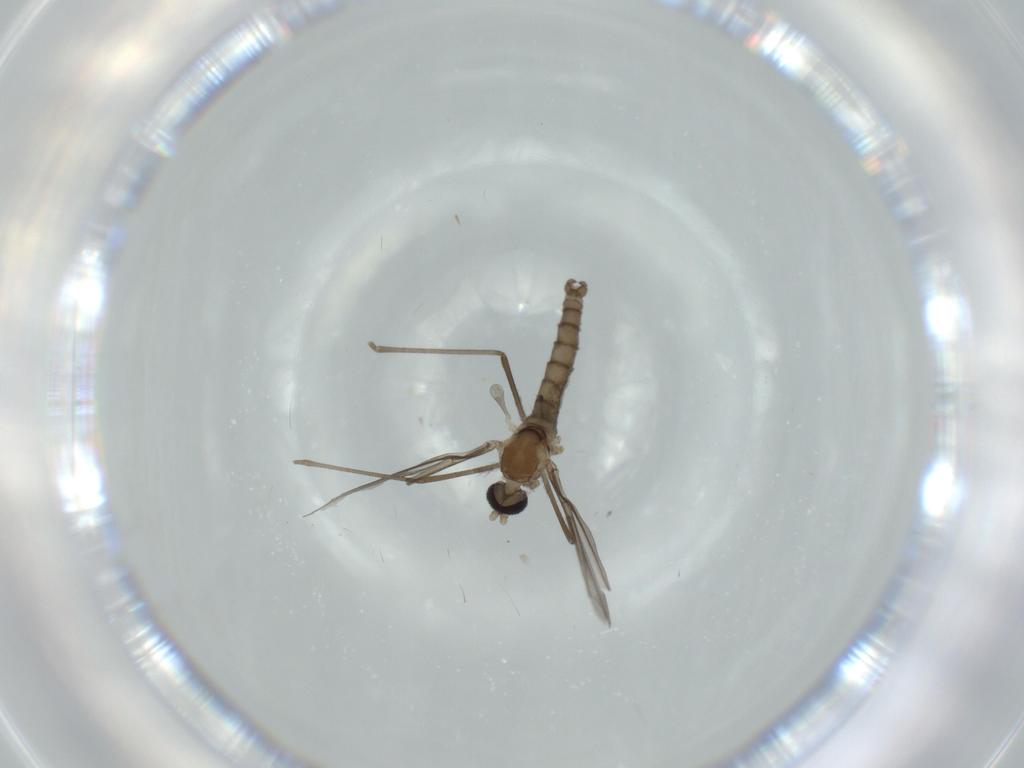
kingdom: Animalia
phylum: Arthropoda
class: Insecta
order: Diptera
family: Cecidomyiidae
